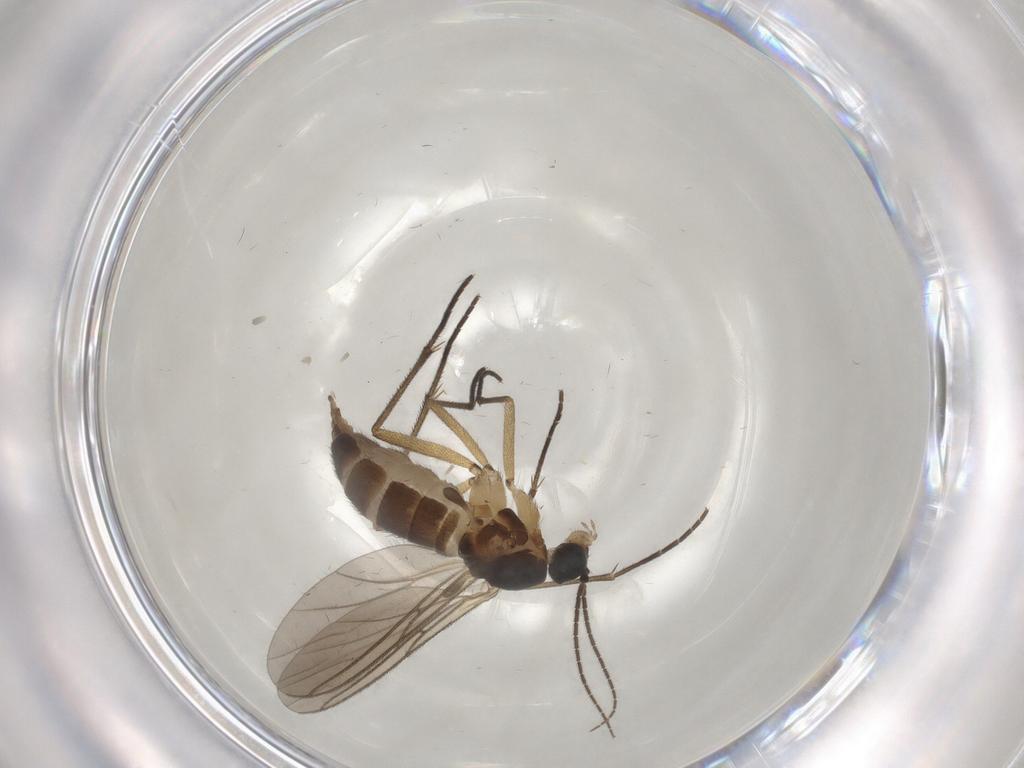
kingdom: Animalia
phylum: Arthropoda
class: Insecta
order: Diptera
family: Sciaridae
